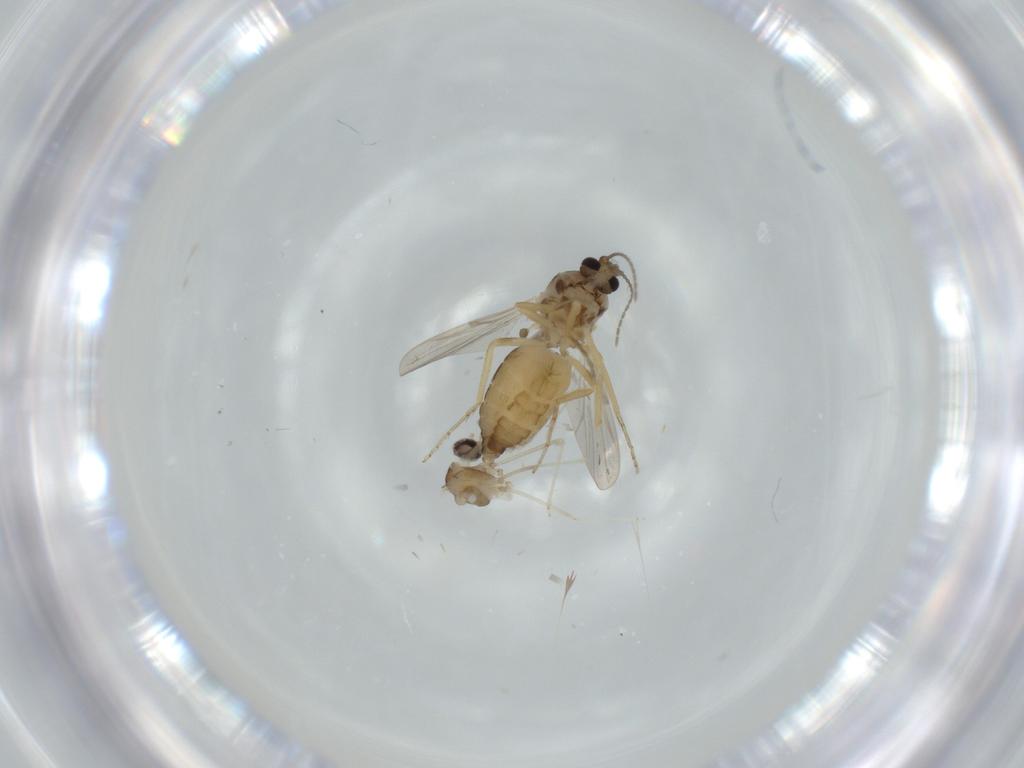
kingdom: Animalia
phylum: Arthropoda
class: Insecta
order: Diptera
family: Ceratopogonidae
